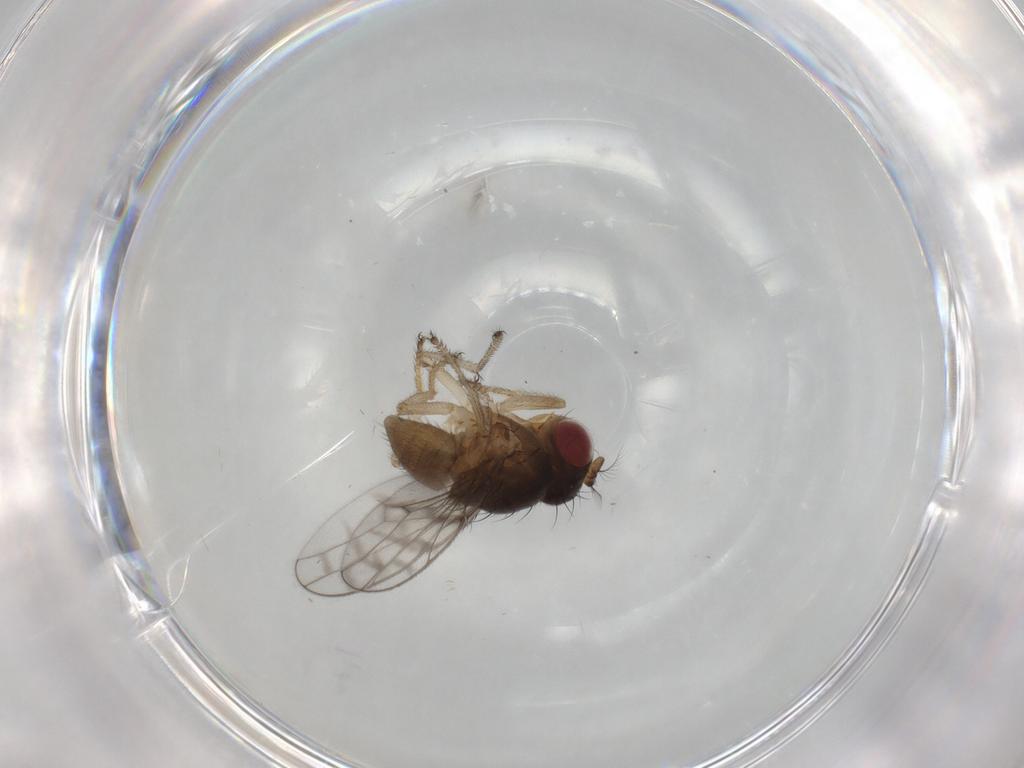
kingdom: Animalia
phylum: Arthropoda
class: Insecta
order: Diptera
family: Ephydridae
